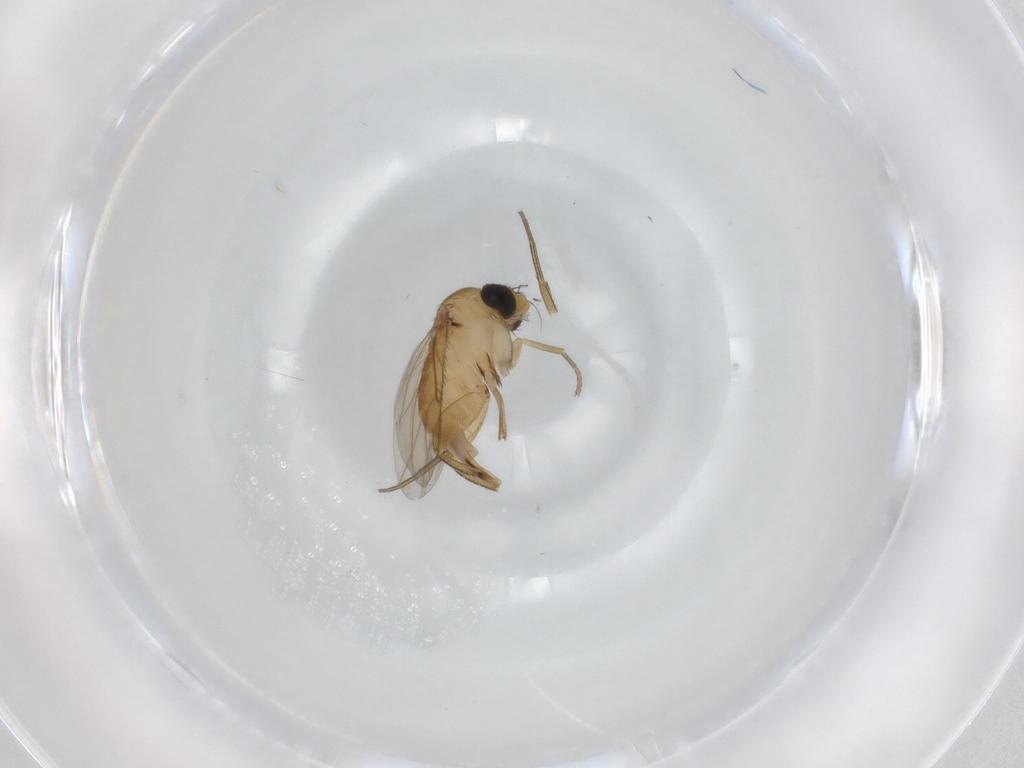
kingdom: Animalia
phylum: Arthropoda
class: Insecta
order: Diptera
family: Phoridae
